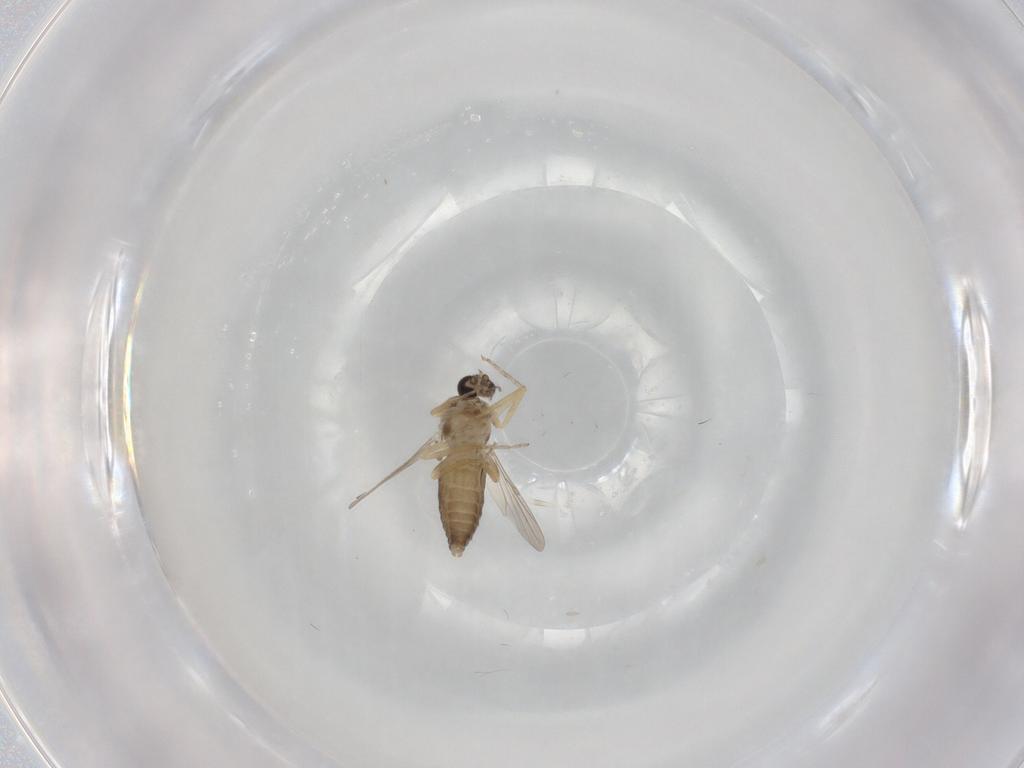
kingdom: Animalia
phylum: Arthropoda
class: Insecta
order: Diptera
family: Ceratopogonidae
